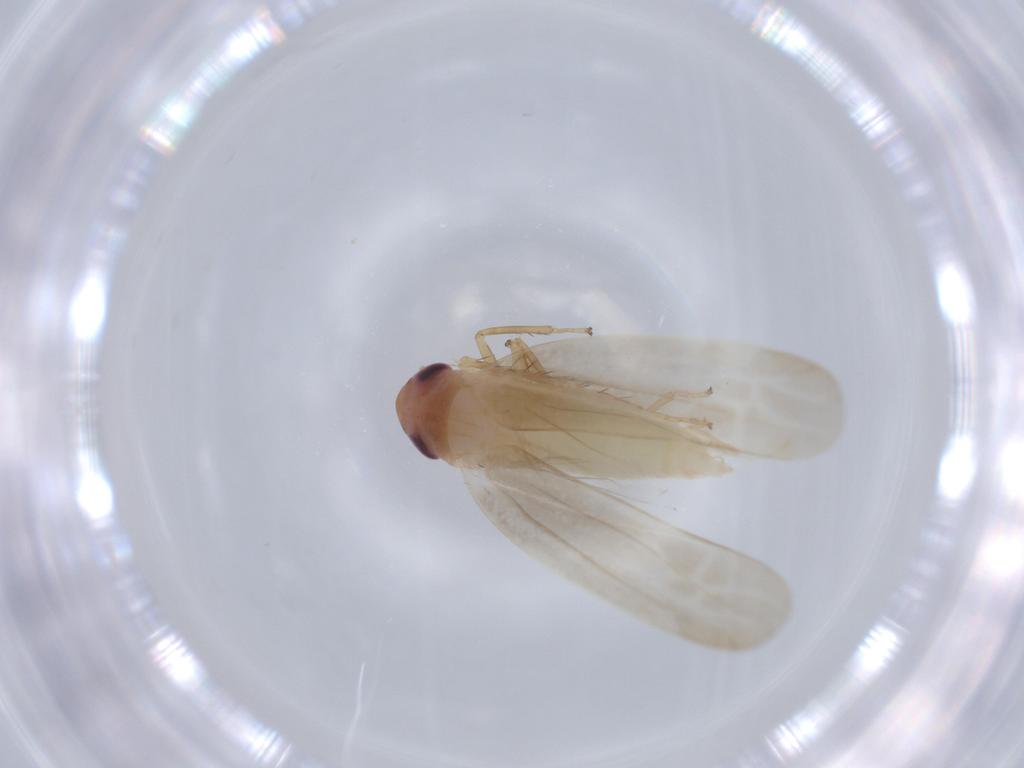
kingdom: Animalia
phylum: Arthropoda
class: Insecta
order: Hemiptera
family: Cicadellidae
